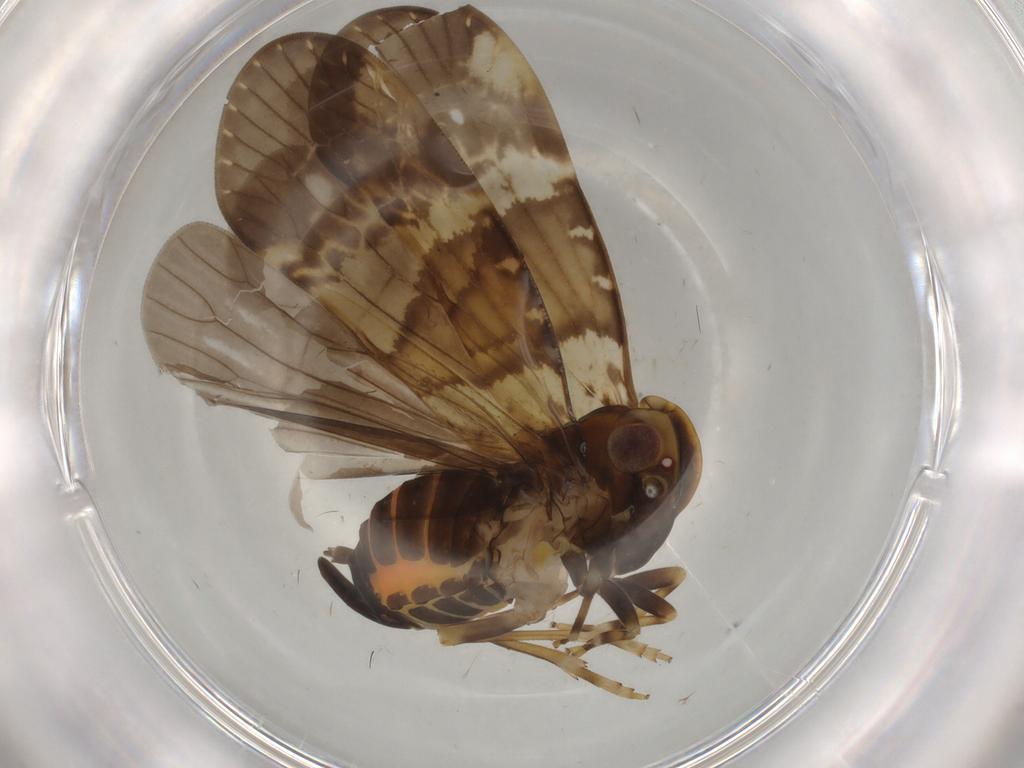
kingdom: Animalia
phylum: Arthropoda
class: Insecta
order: Hemiptera
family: Cixiidae
